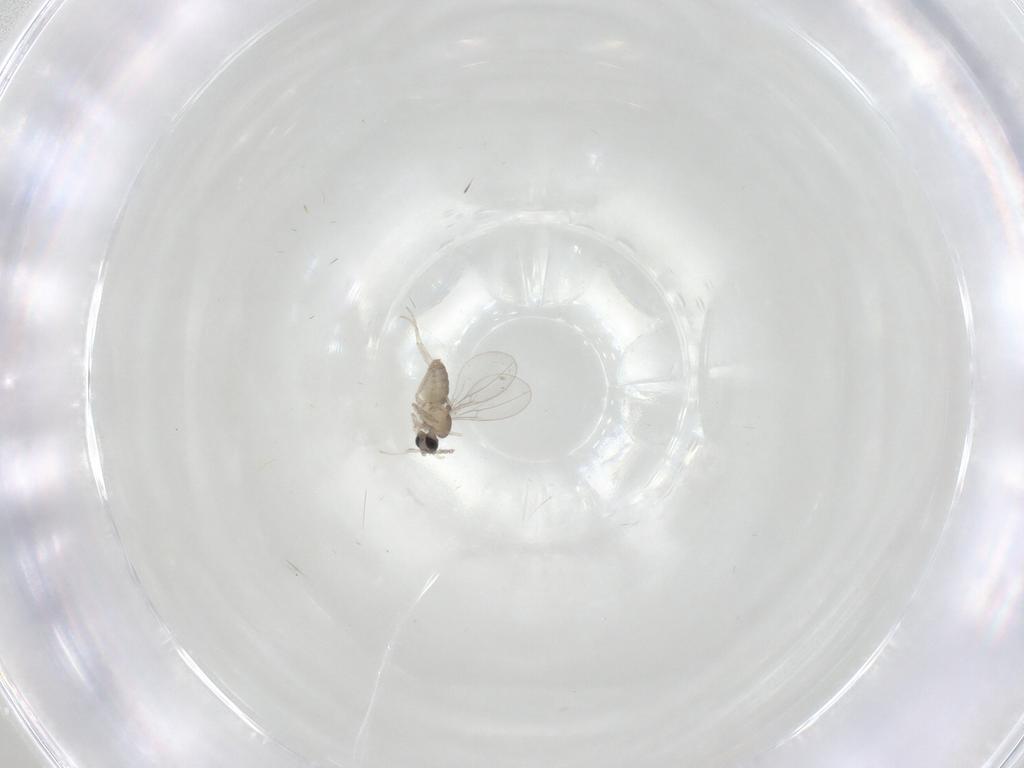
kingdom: Animalia
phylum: Arthropoda
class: Insecta
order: Diptera
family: Cecidomyiidae
